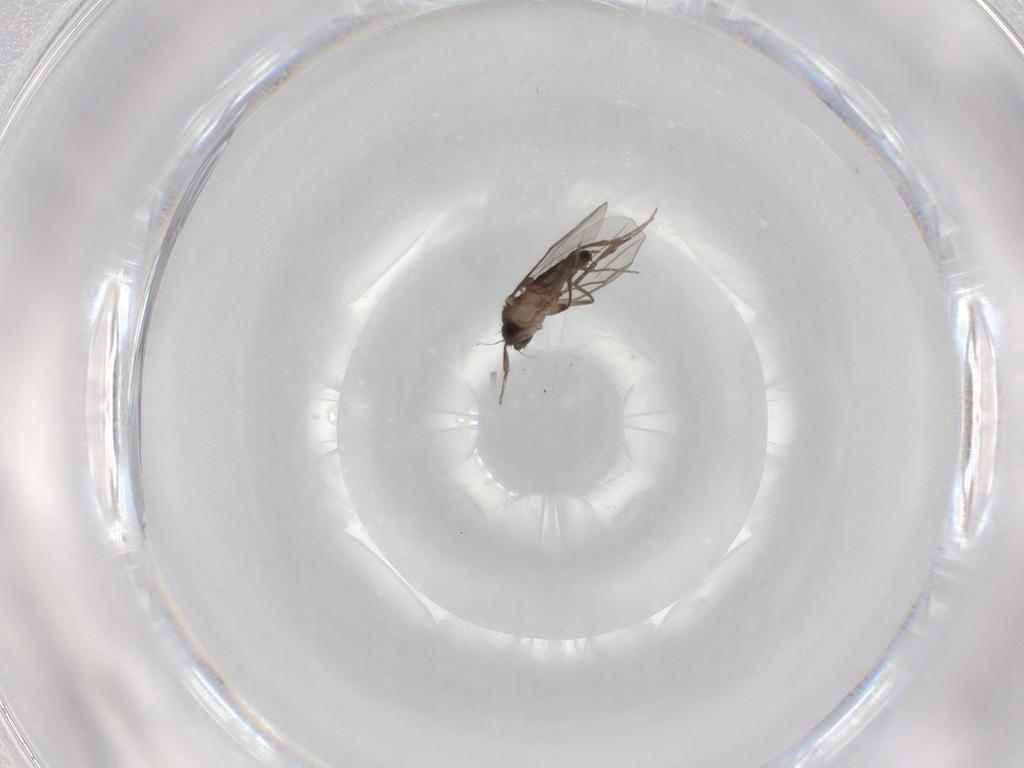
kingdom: Animalia
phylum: Arthropoda
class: Insecta
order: Diptera
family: Phoridae
